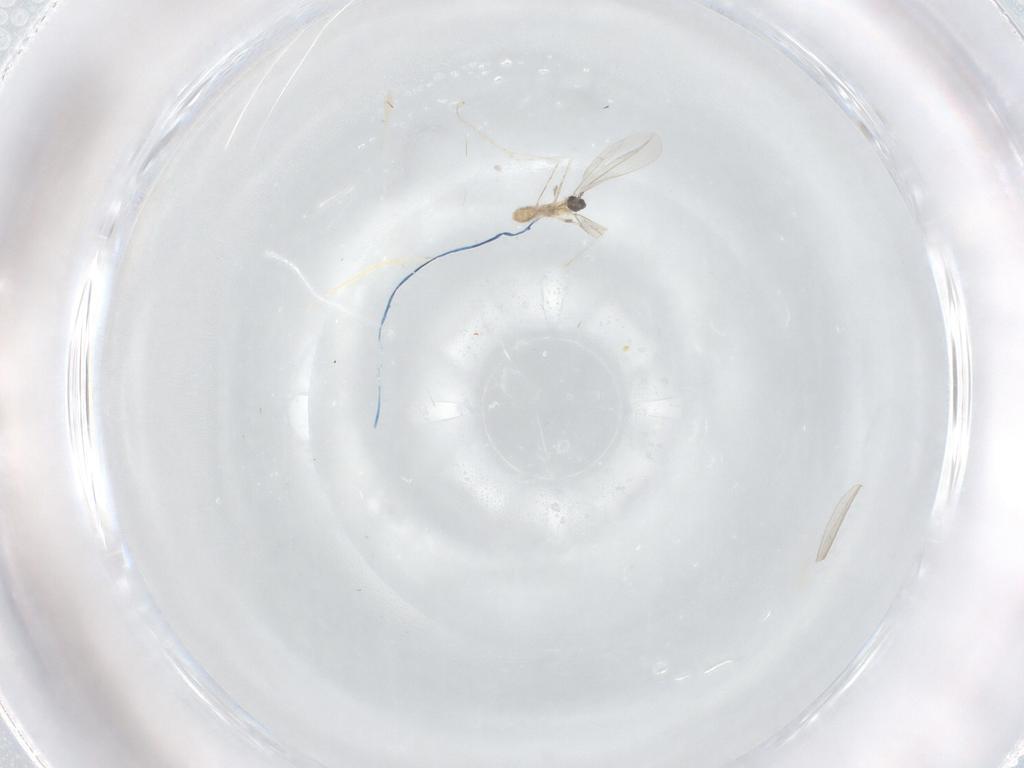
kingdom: Animalia
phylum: Arthropoda
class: Insecta
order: Diptera
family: Cecidomyiidae
